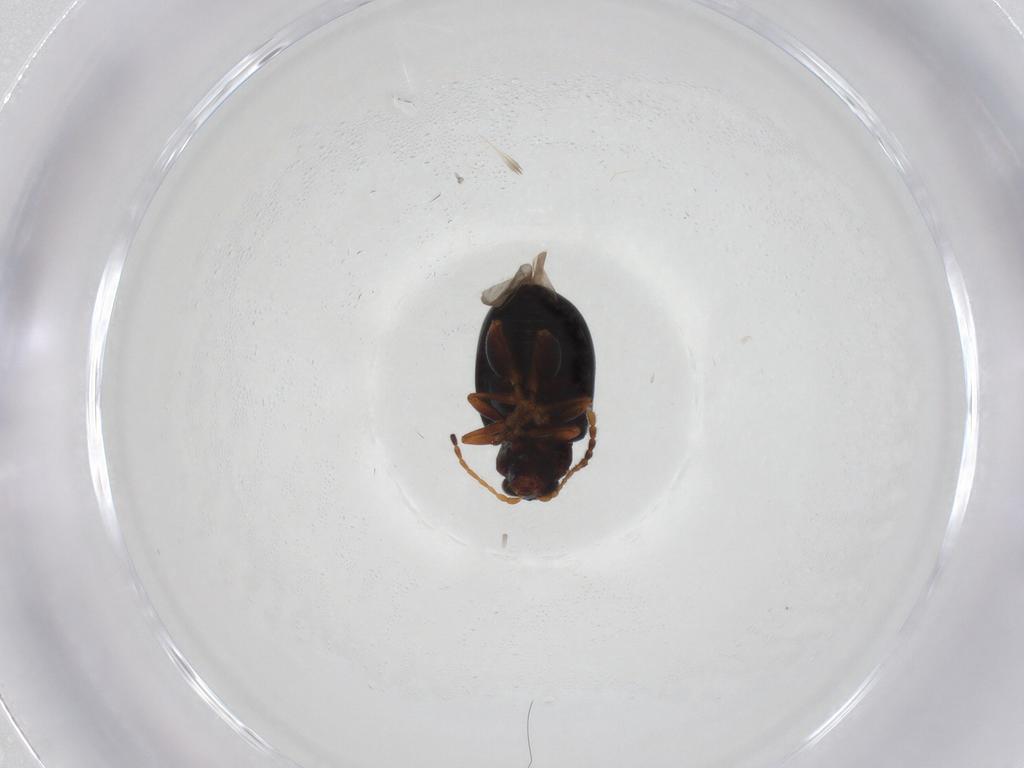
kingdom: Animalia
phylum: Arthropoda
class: Insecta
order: Coleoptera
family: Chrysomelidae
